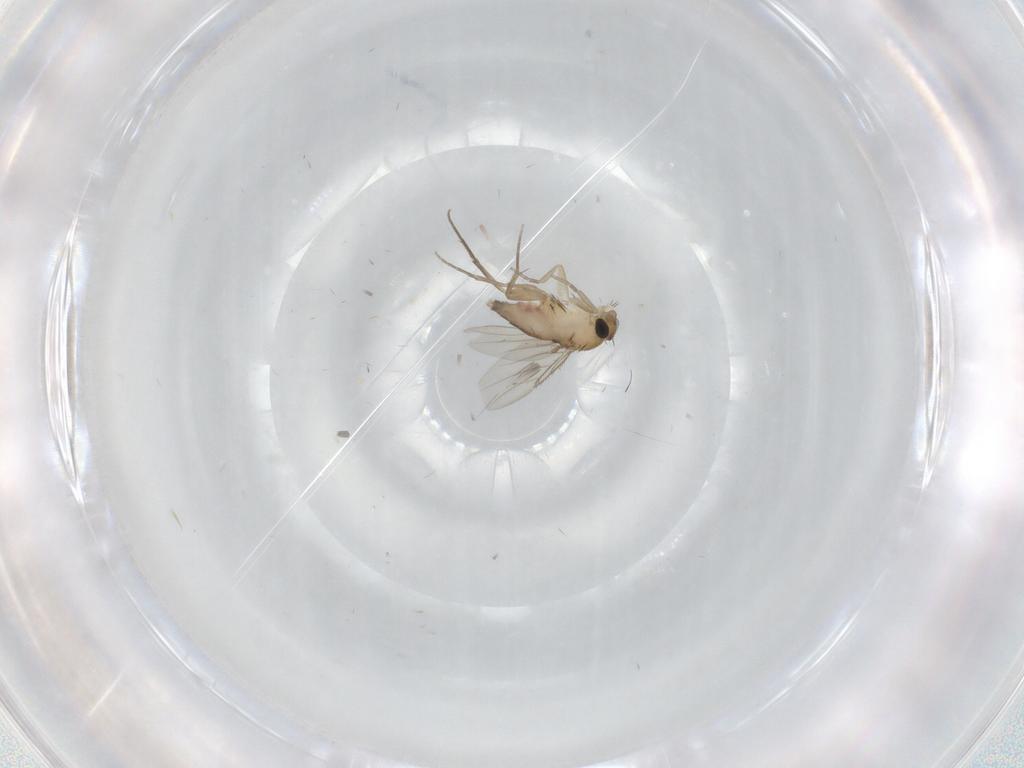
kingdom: Animalia
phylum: Arthropoda
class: Insecta
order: Diptera
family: Phoridae
